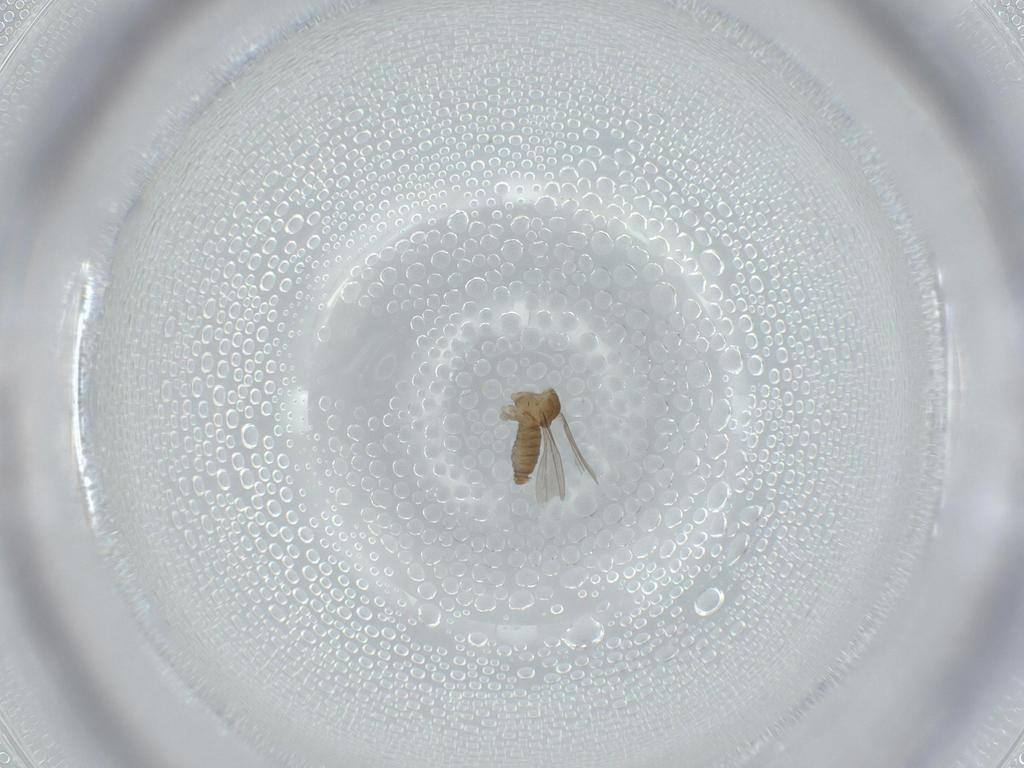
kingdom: Animalia
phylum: Arthropoda
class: Insecta
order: Diptera
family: Cecidomyiidae
